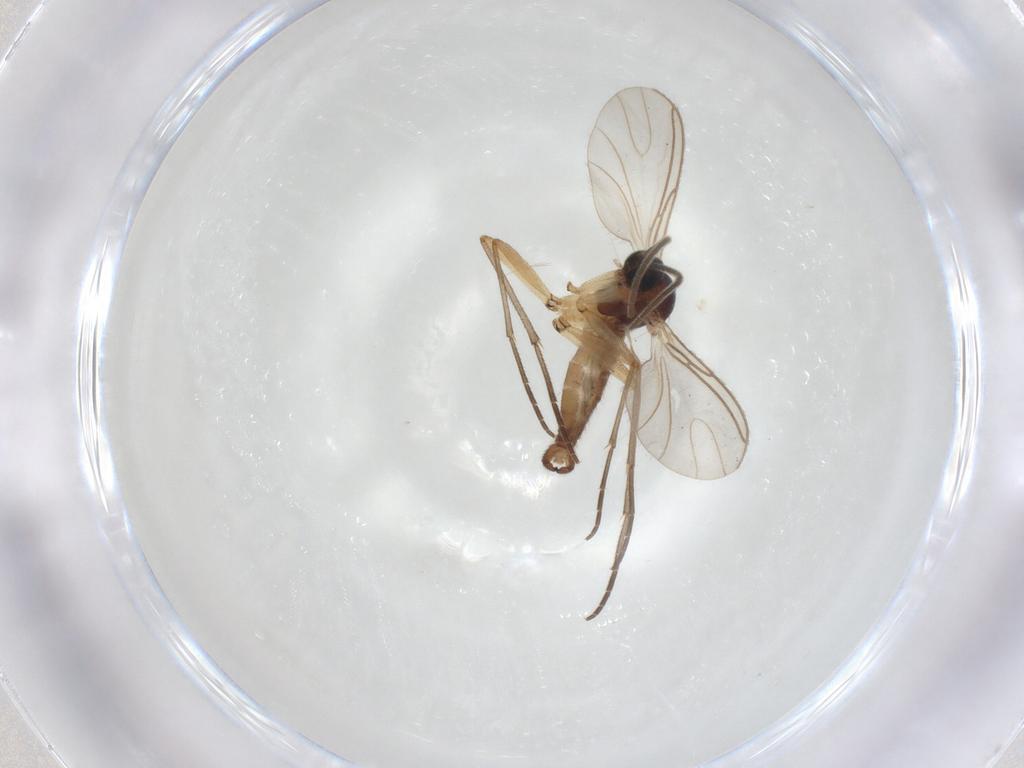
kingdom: Animalia
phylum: Arthropoda
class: Insecta
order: Diptera
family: Sciaridae
